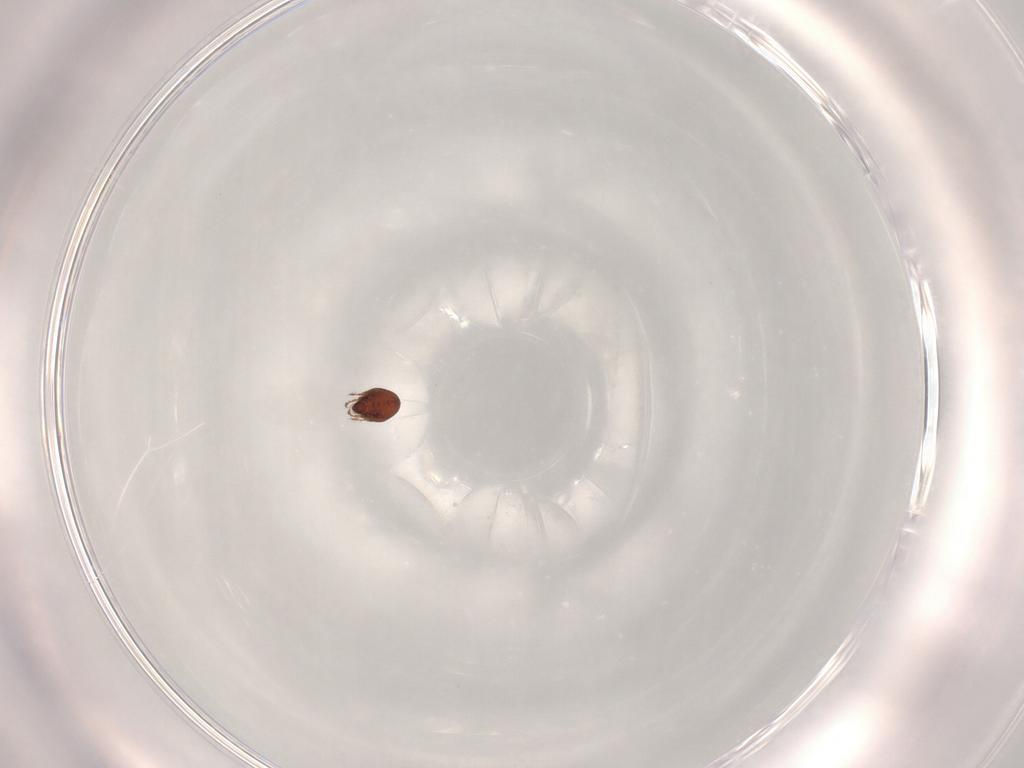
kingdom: Animalia
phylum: Arthropoda
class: Arachnida
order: Sarcoptiformes
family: Ceratozetidae
